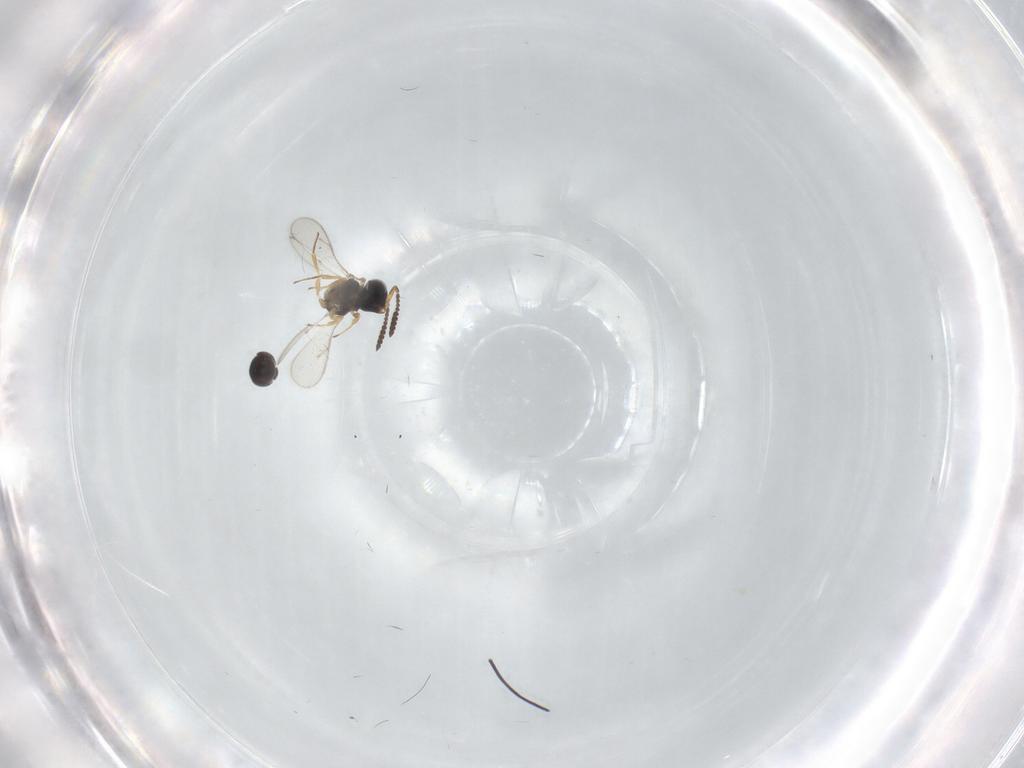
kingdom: Animalia
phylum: Arthropoda
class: Insecta
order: Hymenoptera
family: Scelionidae
